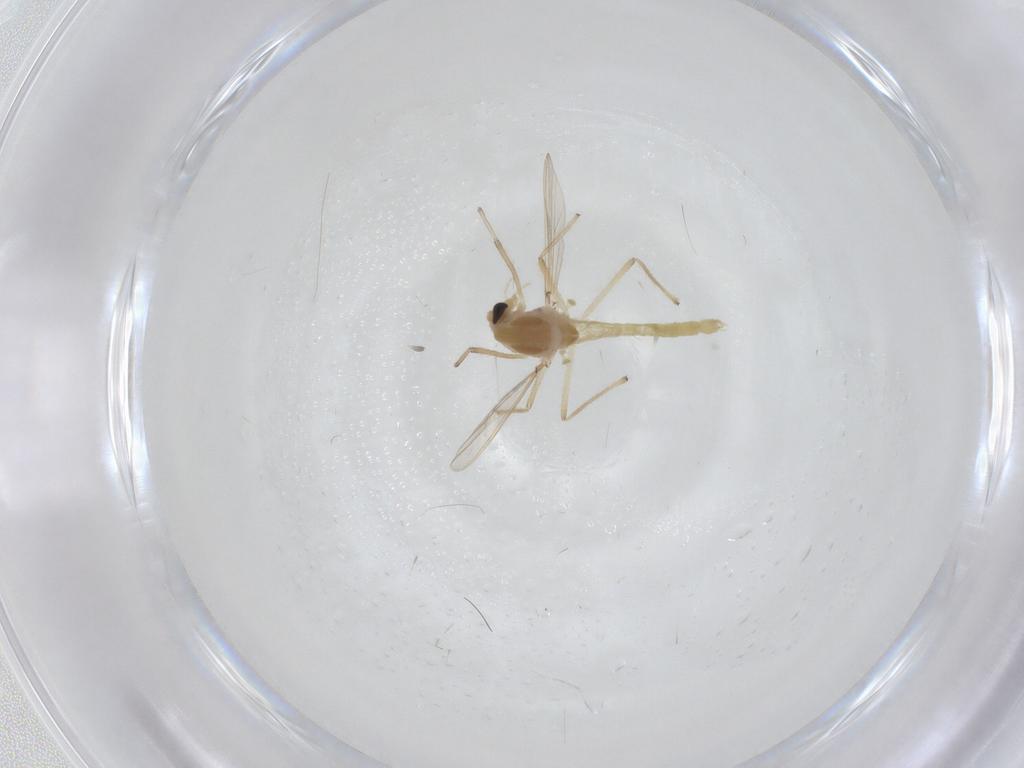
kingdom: Animalia
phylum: Arthropoda
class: Insecta
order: Diptera
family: Chironomidae
